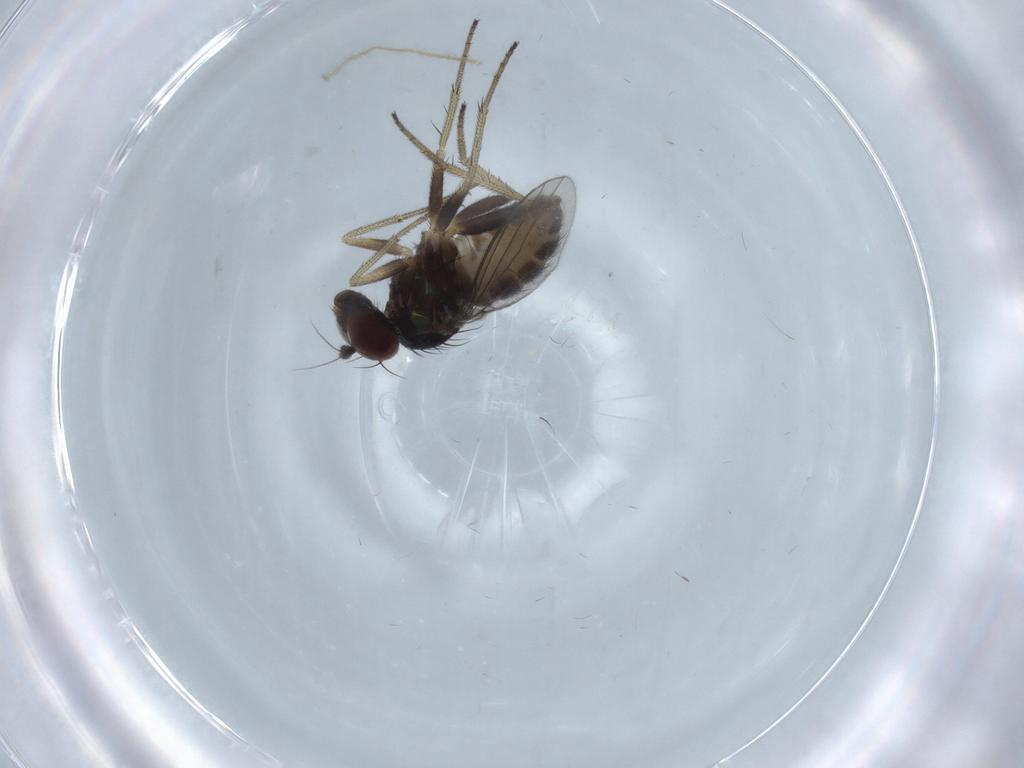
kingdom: Animalia
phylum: Arthropoda
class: Insecta
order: Diptera
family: Dolichopodidae
